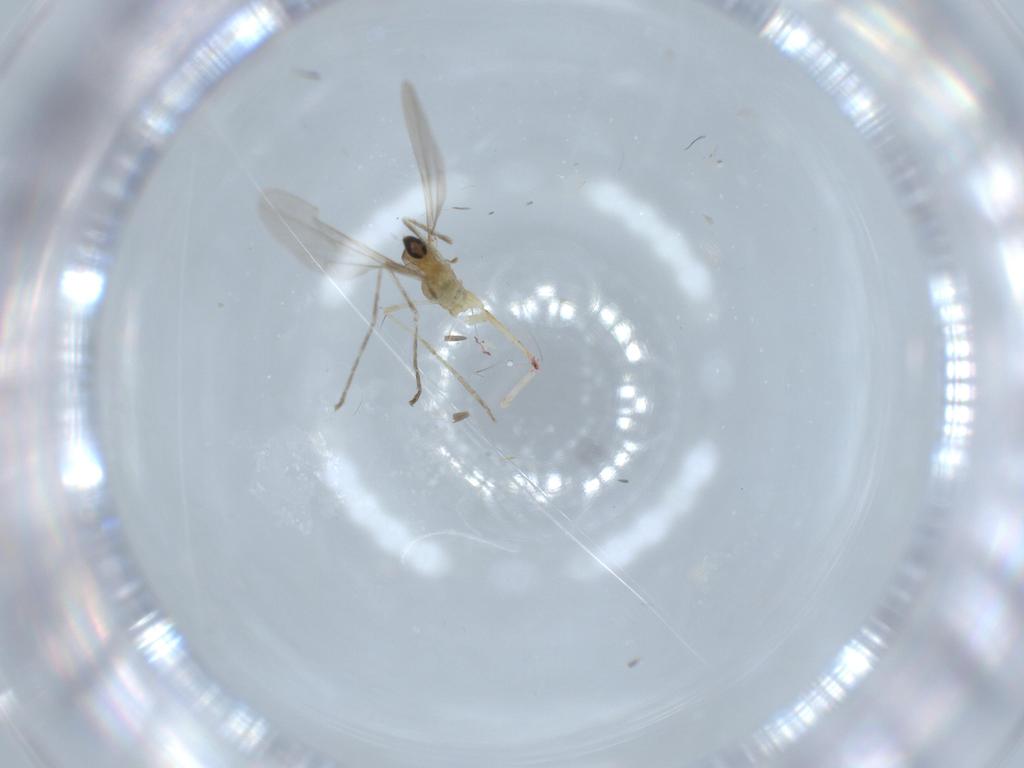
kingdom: Animalia
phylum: Arthropoda
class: Insecta
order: Diptera
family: Cecidomyiidae
